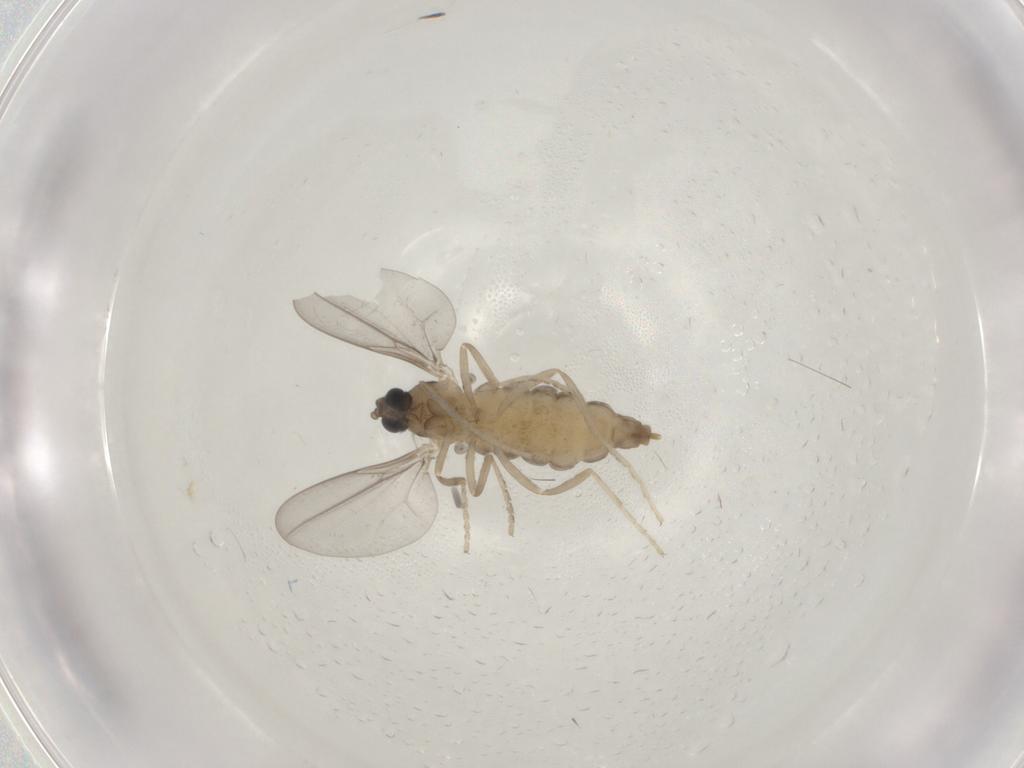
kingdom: Animalia
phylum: Arthropoda
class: Insecta
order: Diptera
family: Cecidomyiidae
